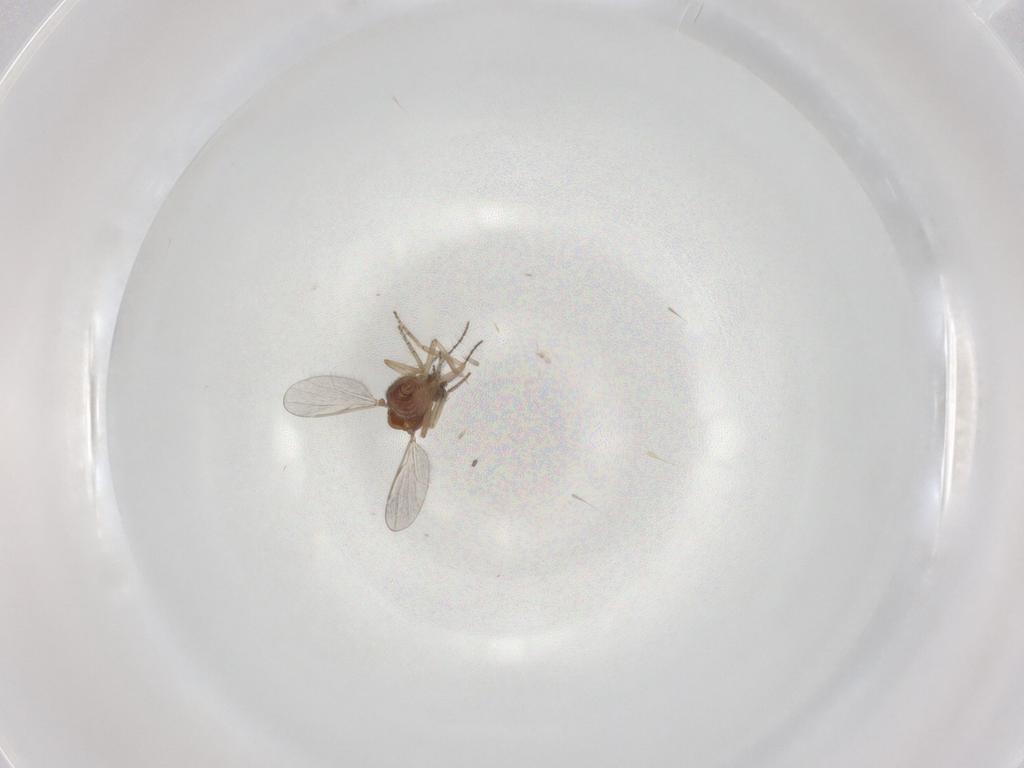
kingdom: Animalia
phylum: Arthropoda
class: Insecta
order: Diptera
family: Ceratopogonidae
